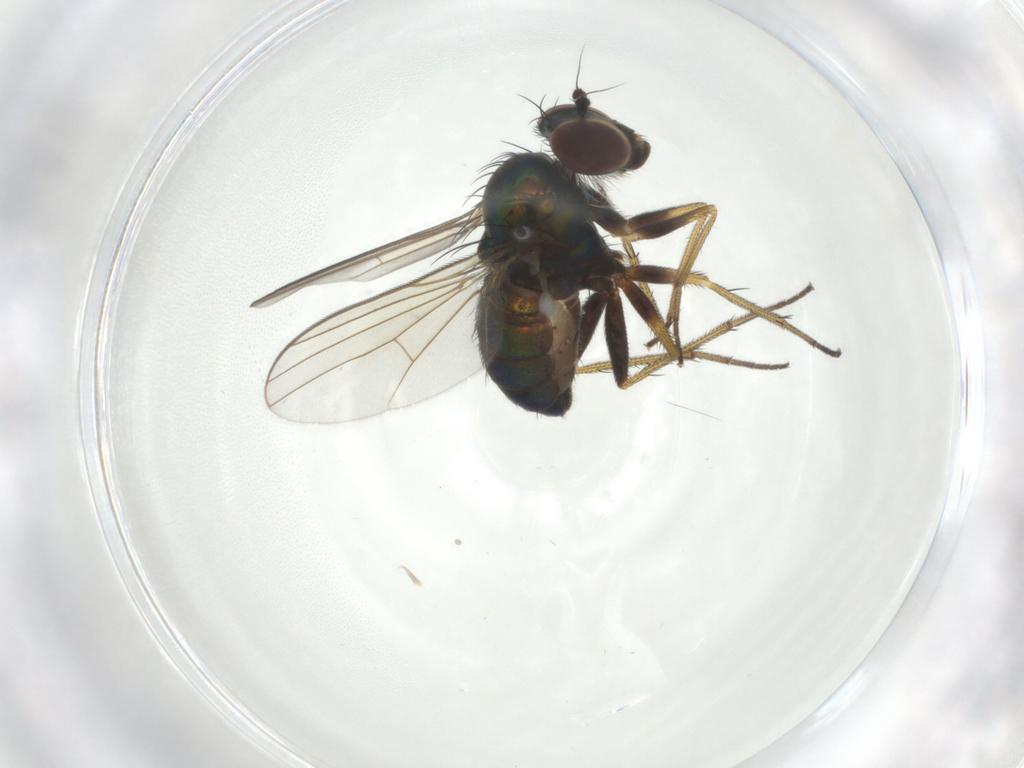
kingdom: Animalia
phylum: Arthropoda
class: Insecta
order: Diptera
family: Dolichopodidae
